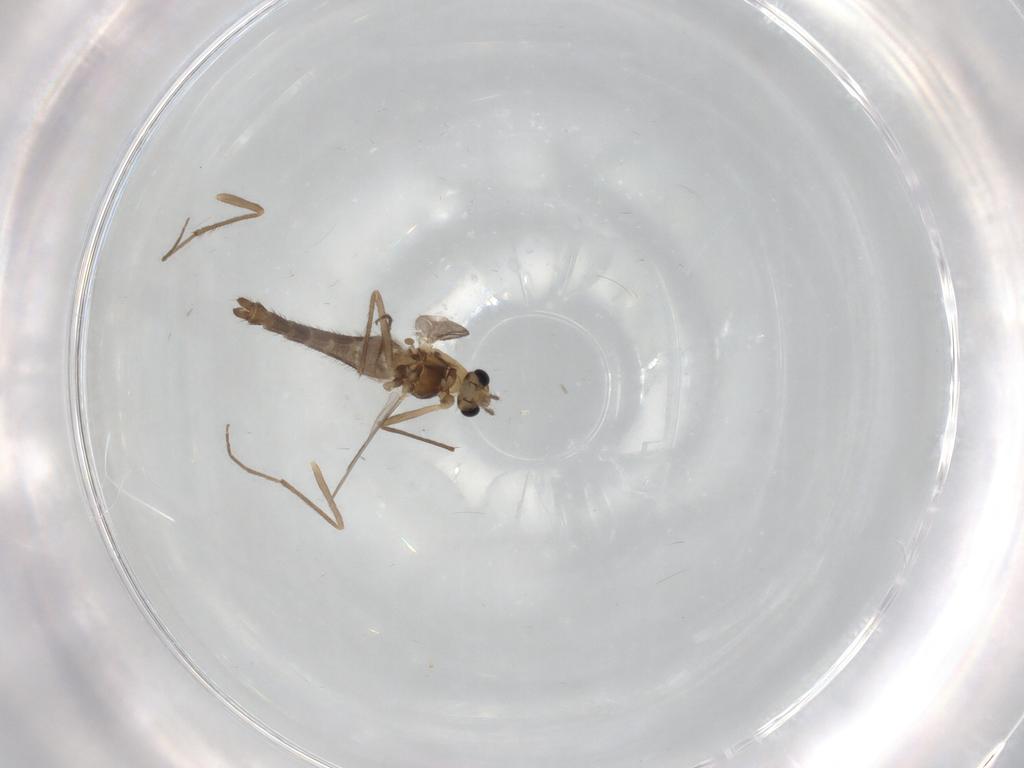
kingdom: Animalia
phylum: Arthropoda
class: Insecta
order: Diptera
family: Chironomidae
